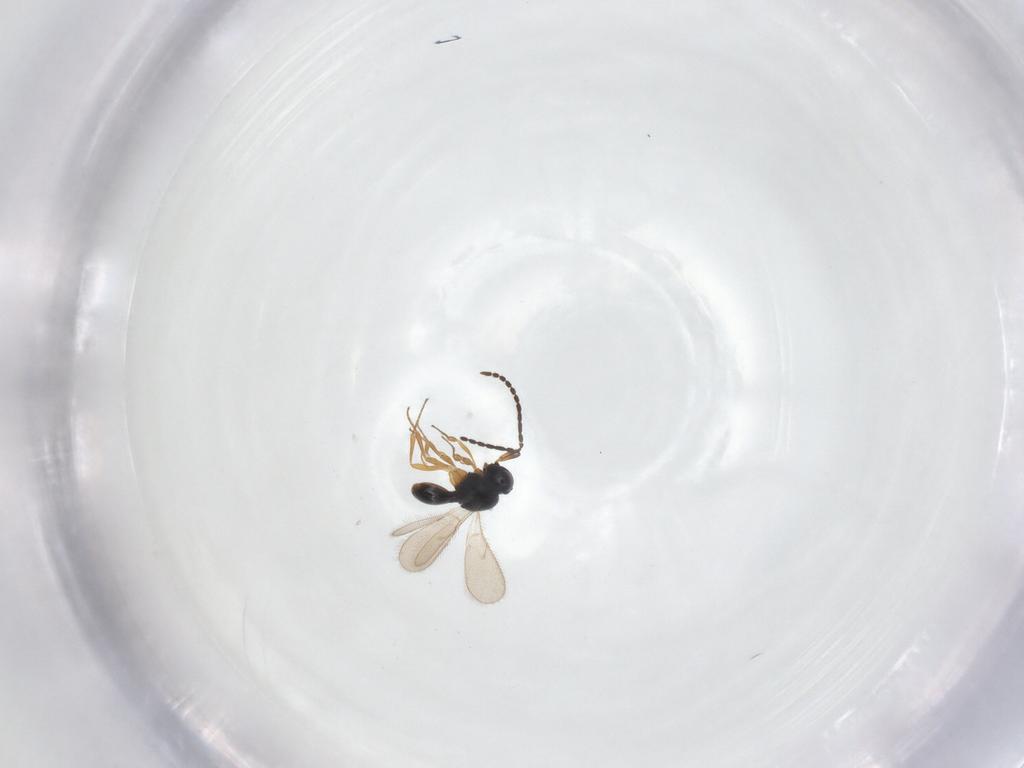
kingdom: Animalia
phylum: Arthropoda
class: Insecta
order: Hymenoptera
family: Scelionidae
